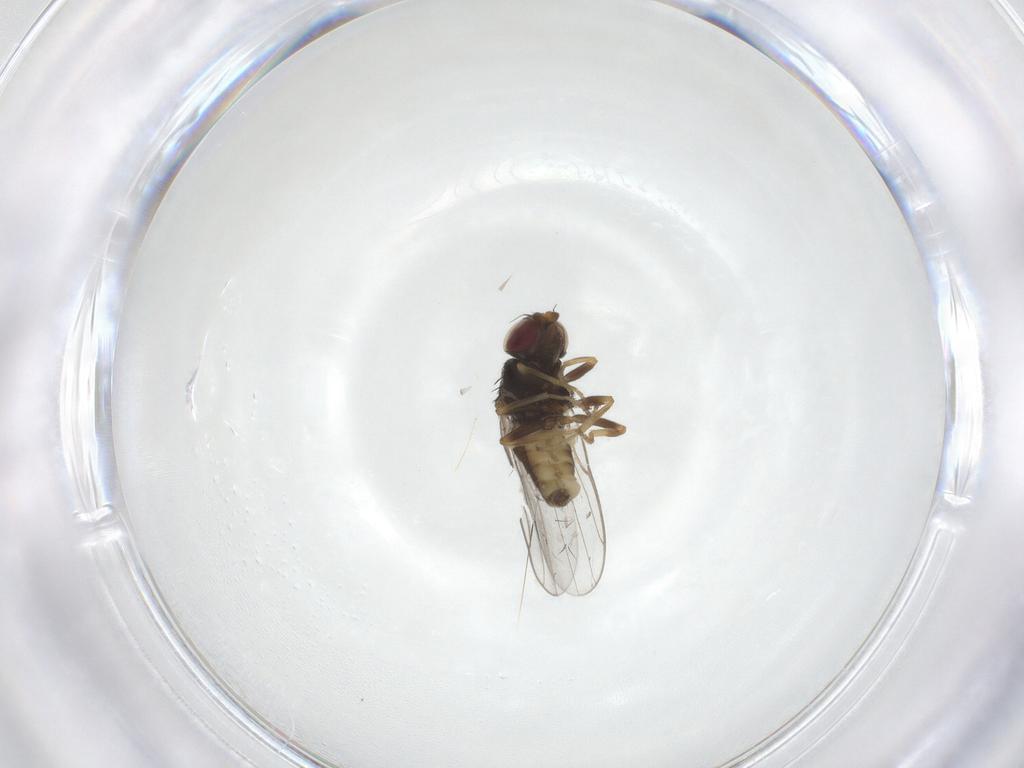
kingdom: Animalia
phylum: Arthropoda
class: Insecta
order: Diptera
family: Chloropidae
